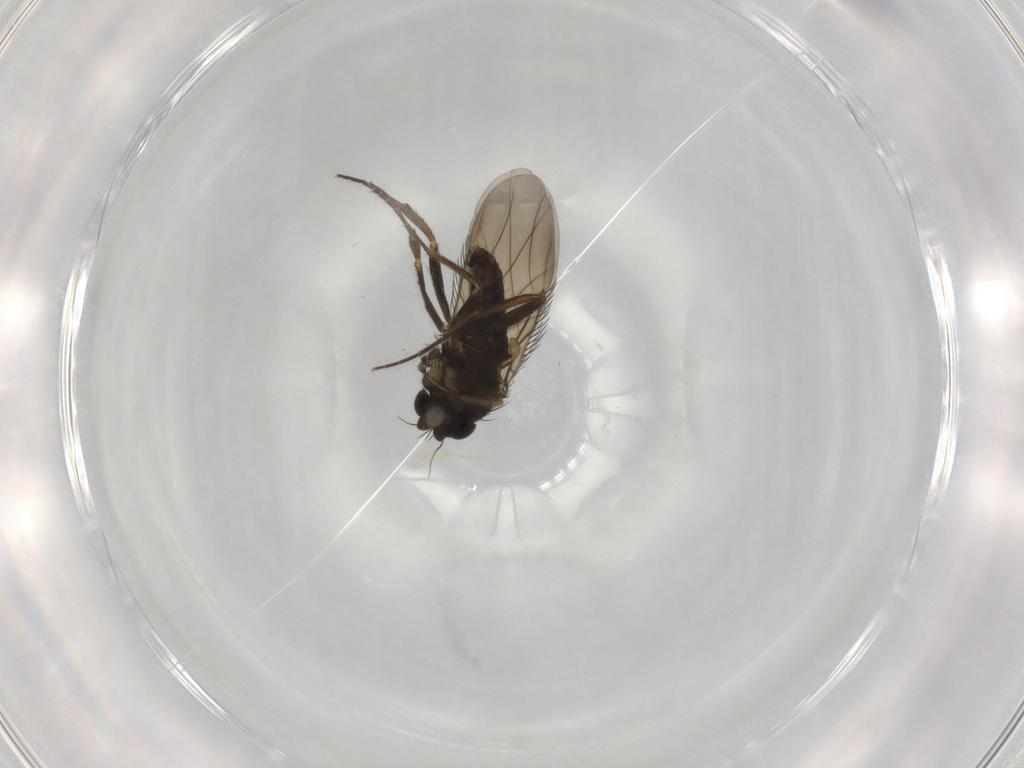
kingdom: Animalia
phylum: Arthropoda
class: Insecta
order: Diptera
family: Phoridae
